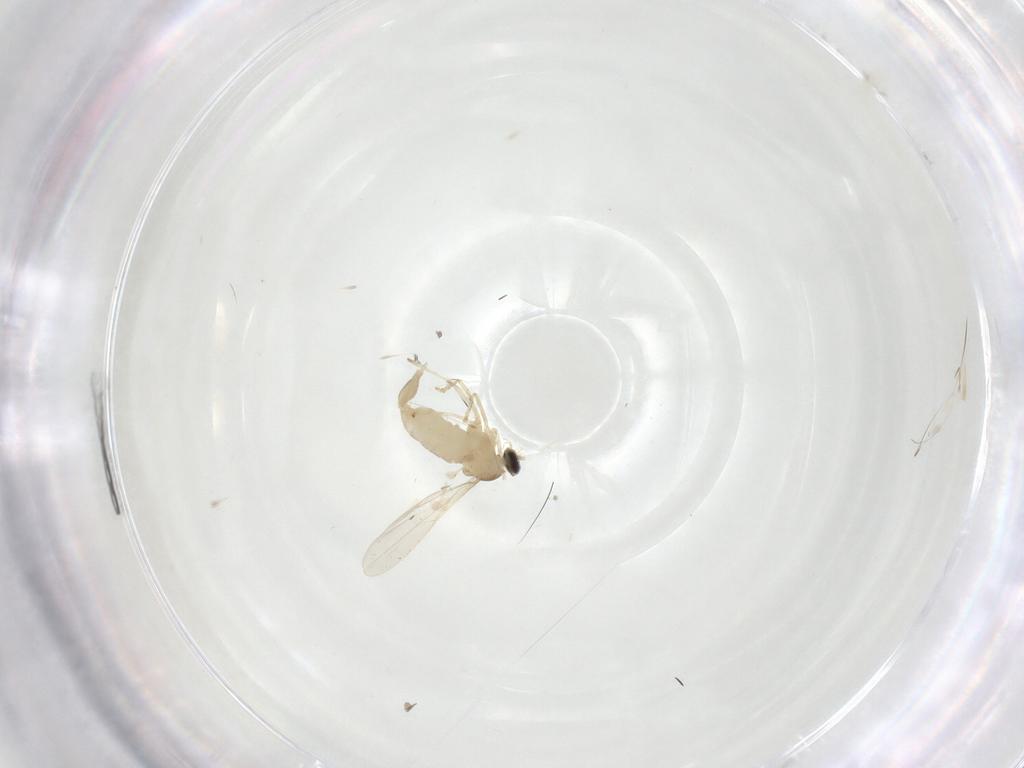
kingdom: Animalia
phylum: Arthropoda
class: Insecta
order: Diptera
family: Cecidomyiidae
